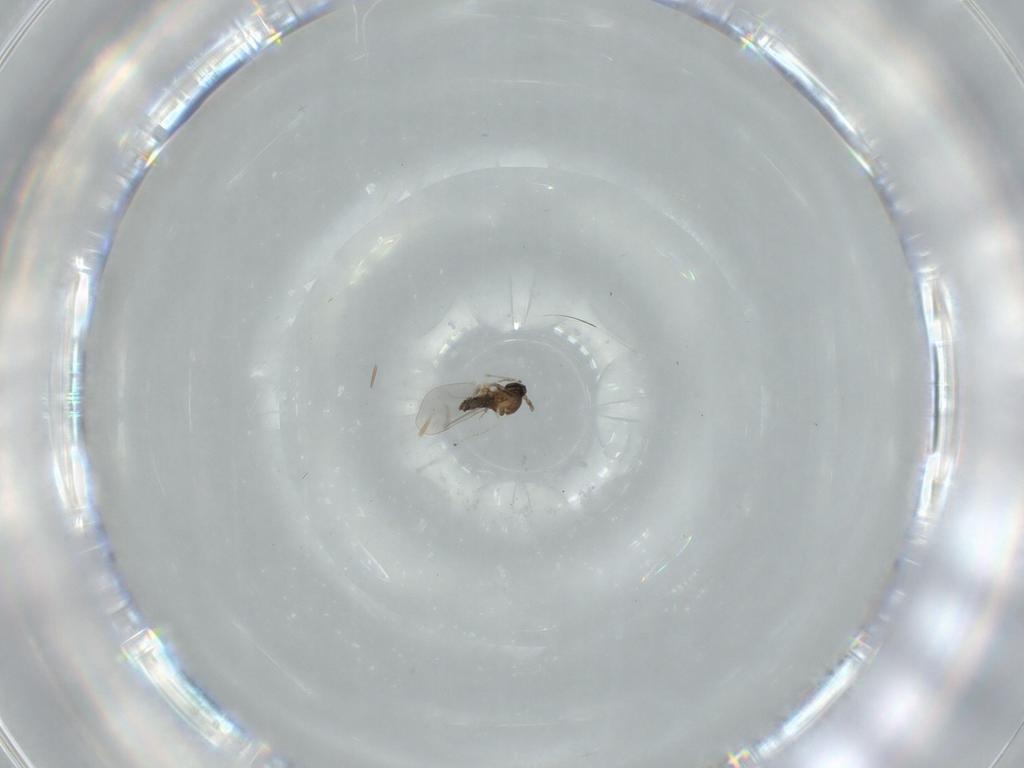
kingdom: Animalia
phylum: Arthropoda
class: Insecta
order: Diptera
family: Cecidomyiidae
